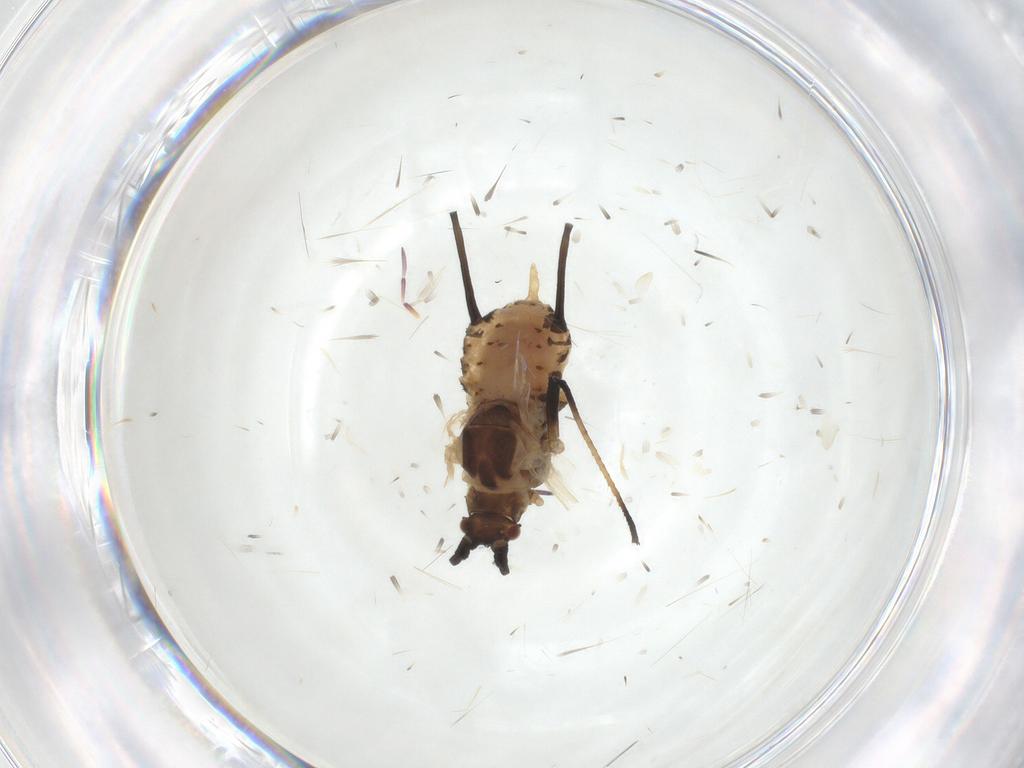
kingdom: Animalia
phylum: Arthropoda
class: Insecta
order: Hemiptera
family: Aphididae
